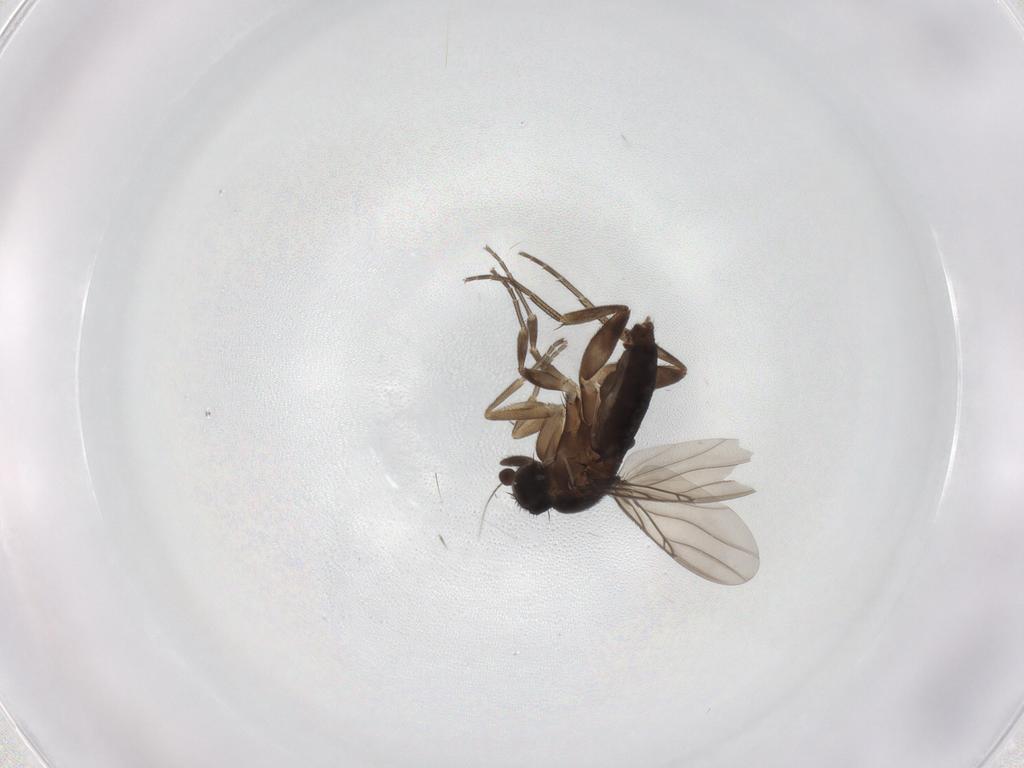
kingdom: Animalia
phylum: Arthropoda
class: Insecta
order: Diptera
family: Phoridae
